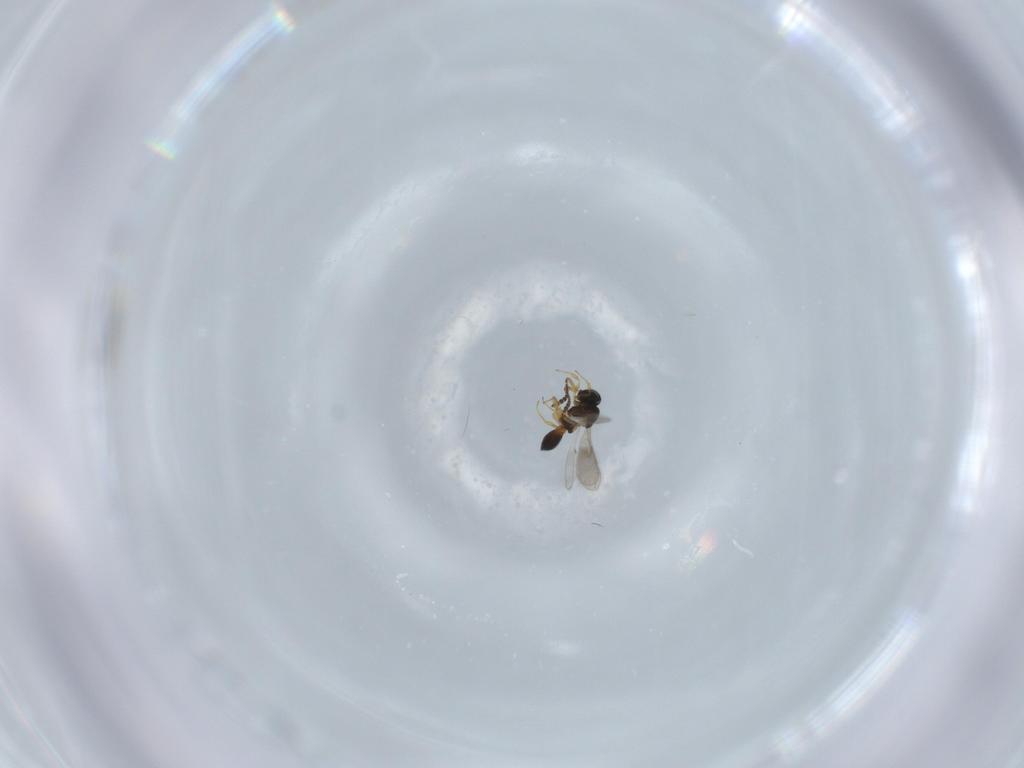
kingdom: Animalia
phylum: Arthropoda
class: Insecta
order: Hymenoptera
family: Scelionidae
